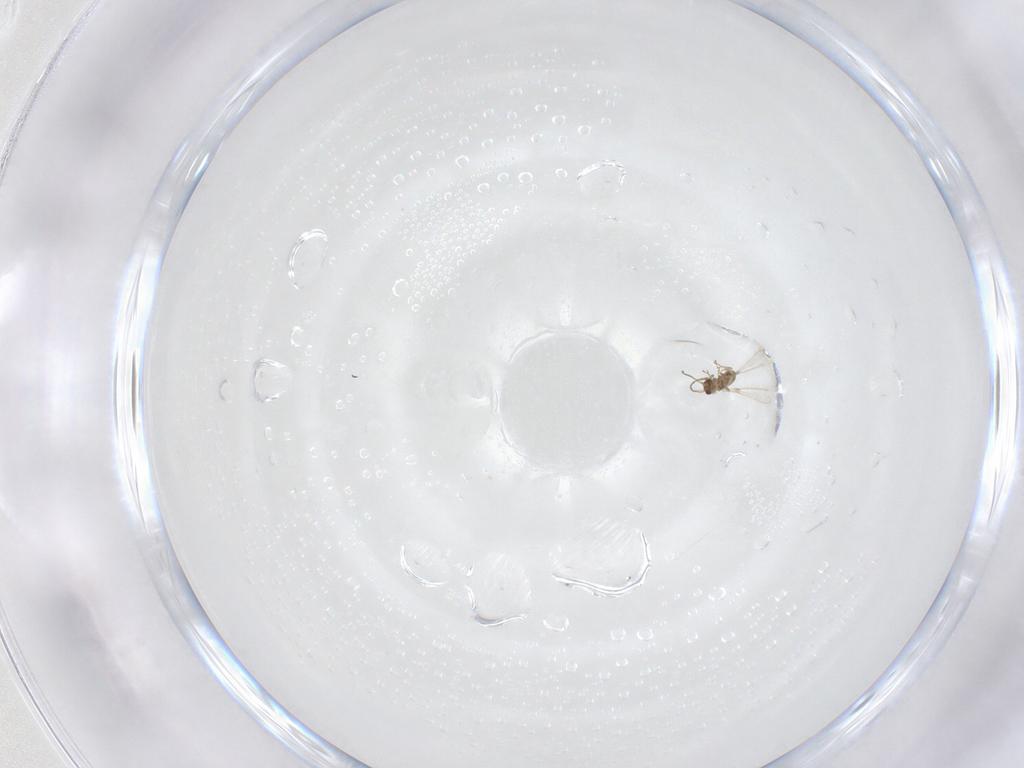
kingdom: Animalia
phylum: Arthropoda
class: Insecta
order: Hymenoptera
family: Mymaridae
